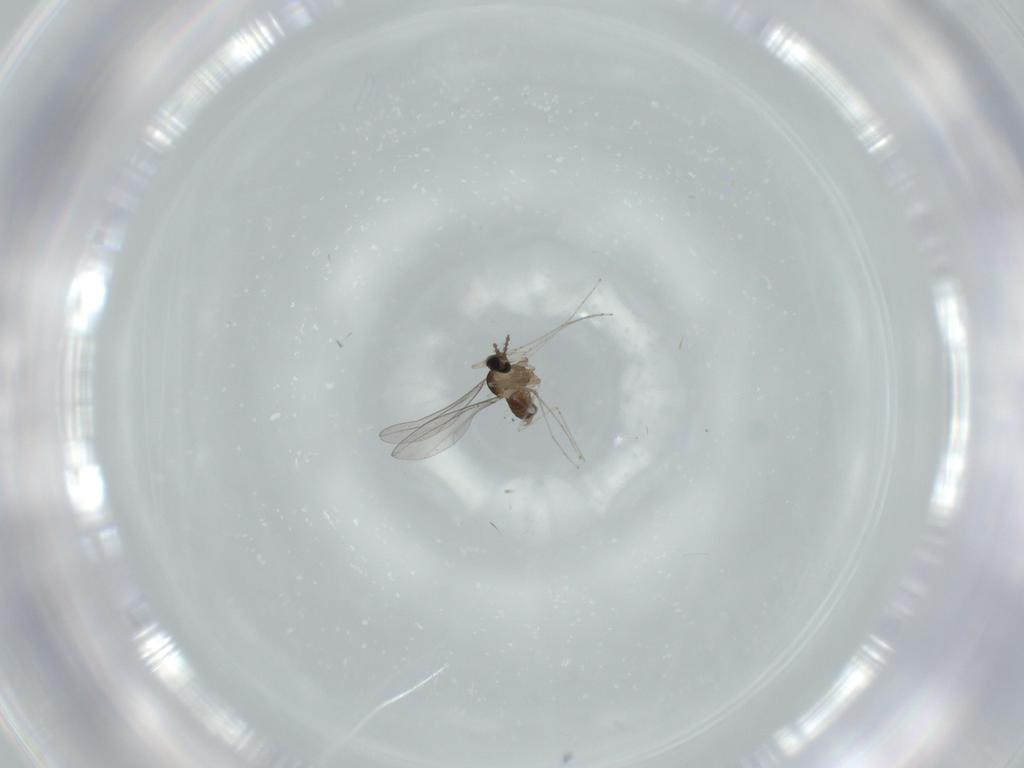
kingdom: Animalia
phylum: Arthropoda
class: Insecta
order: Diptera
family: Cecidomyiidae
